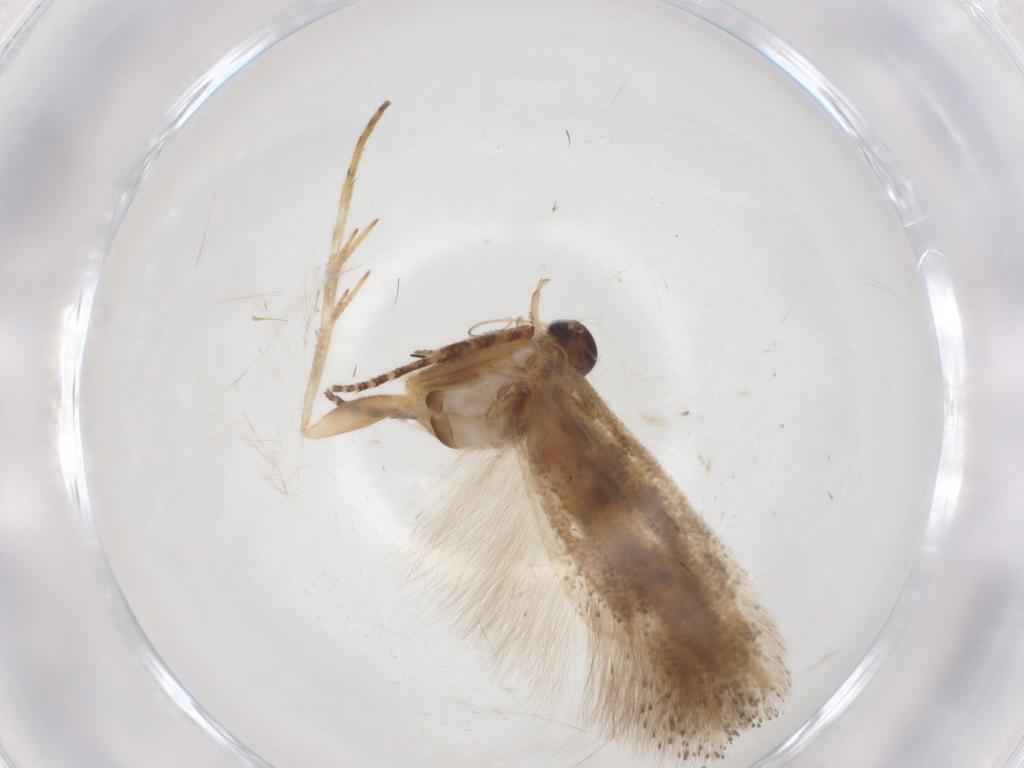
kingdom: Animalia
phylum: Arthropoda
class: Insecta
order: Lepidoptera
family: Gelechiidae
